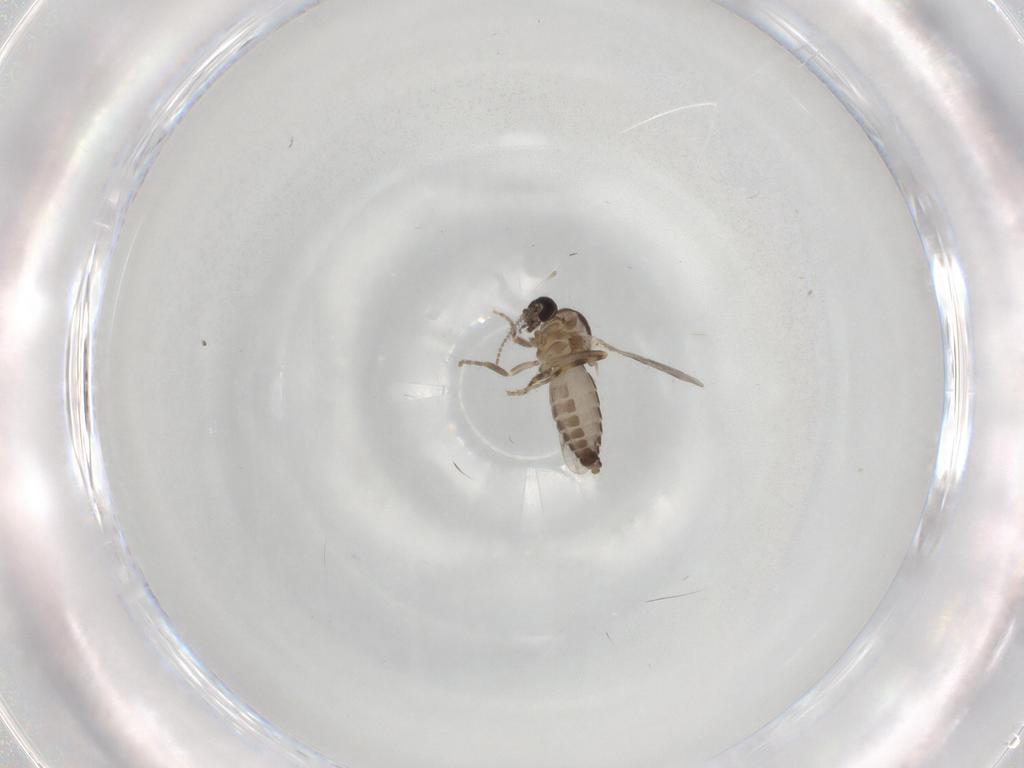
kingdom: Animalia
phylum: Arthropoda
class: Insecta
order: Diptera
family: Ceratopogonidae
